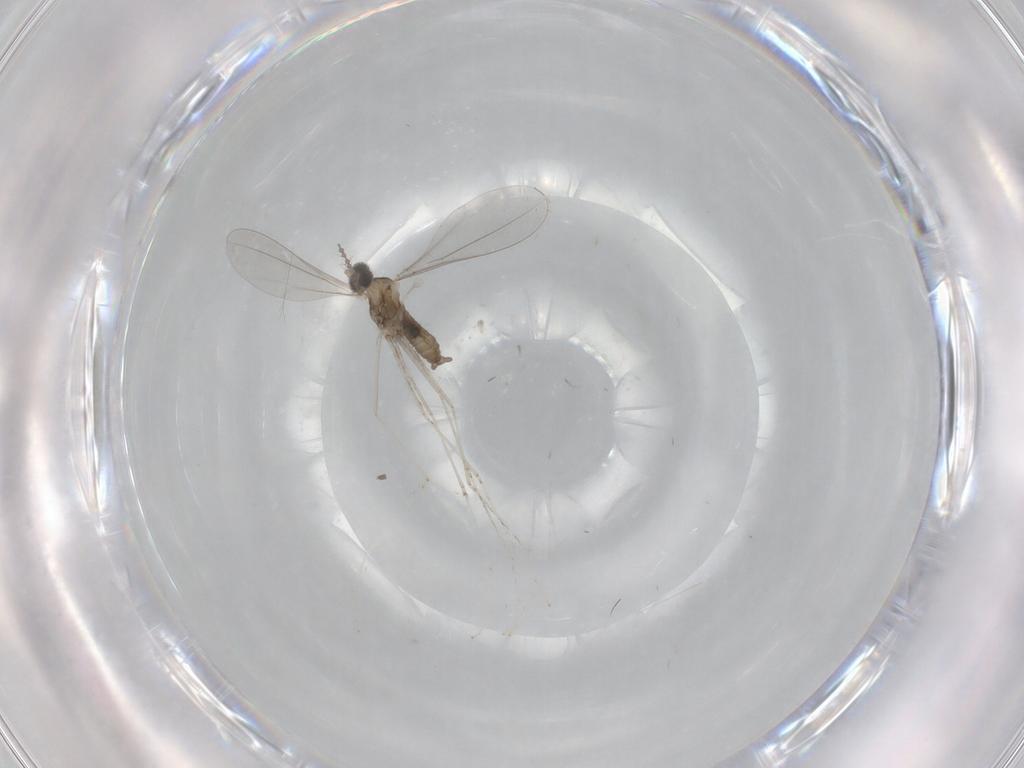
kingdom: Animalia
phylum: Arthropoda
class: Insecta
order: Diptera
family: Cecidomyiidae
